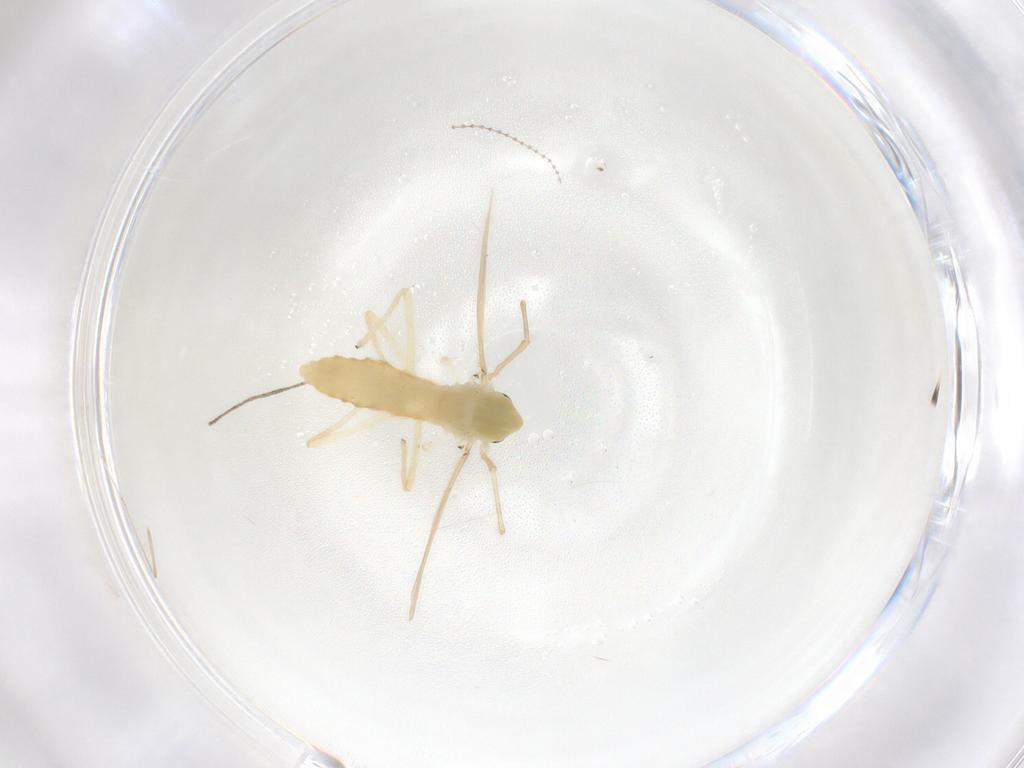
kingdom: Animalia
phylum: Arthropoda
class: Insecta
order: Diptera
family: Chironomidae
